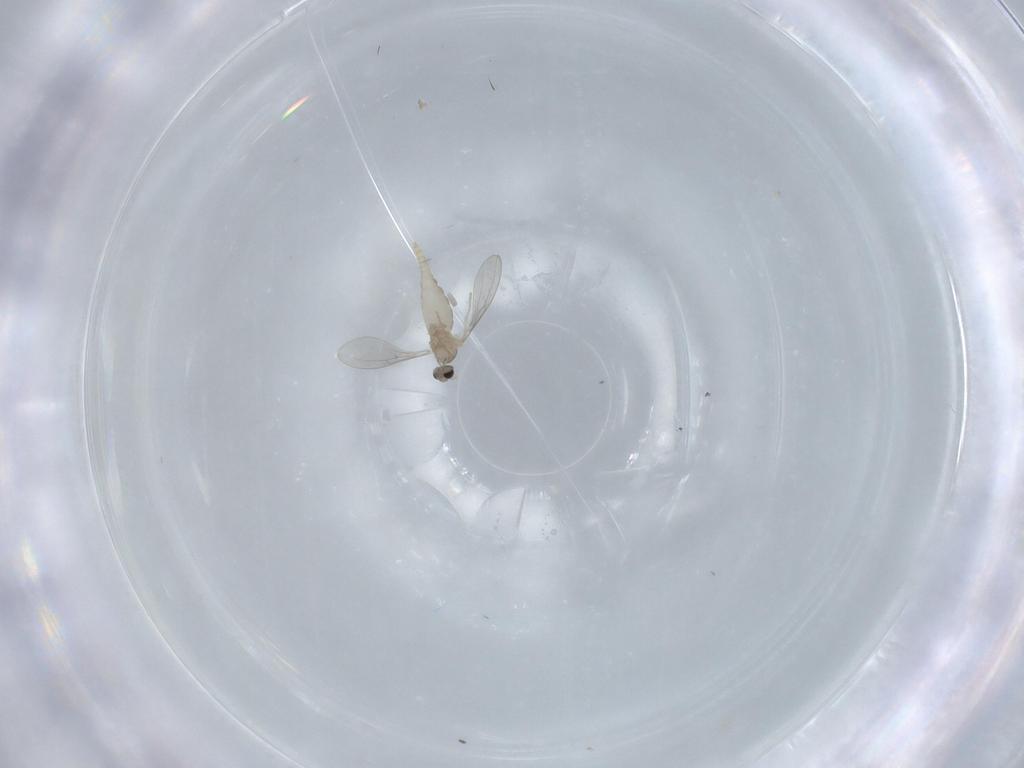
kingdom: Animalia
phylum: Arthropoda
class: Insecta
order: Diptera
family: Cecidomyiidae
